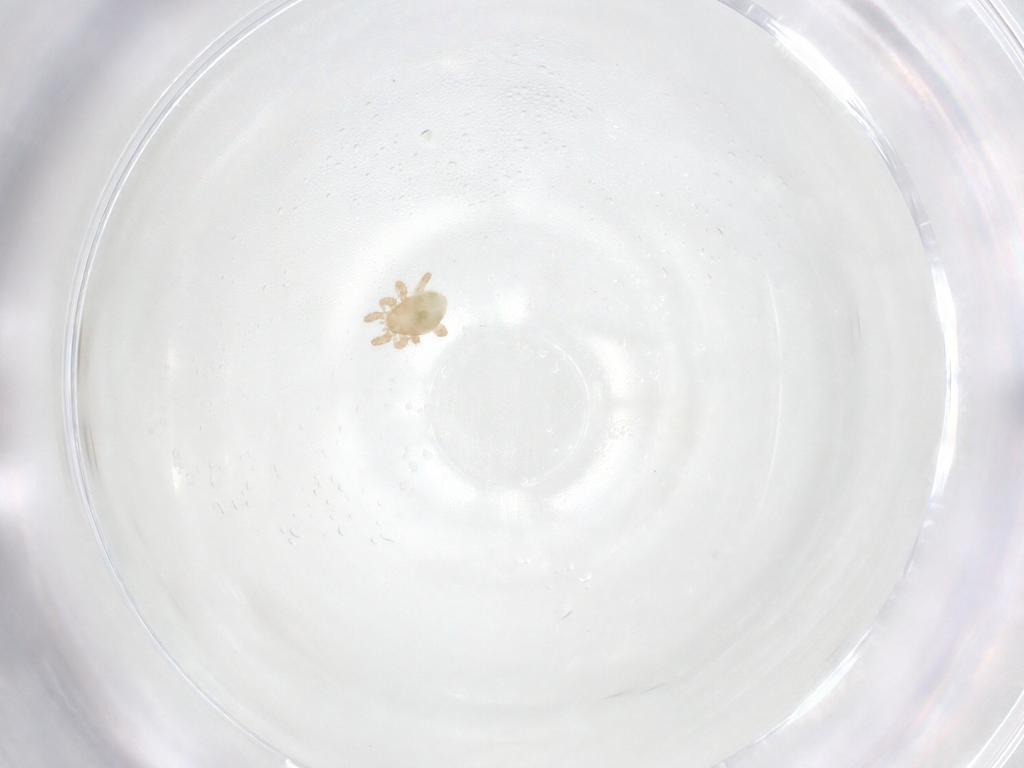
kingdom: Animalia
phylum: Arthropoda
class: Arachnida
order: Mesostigmata
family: Otopheidomenidae
